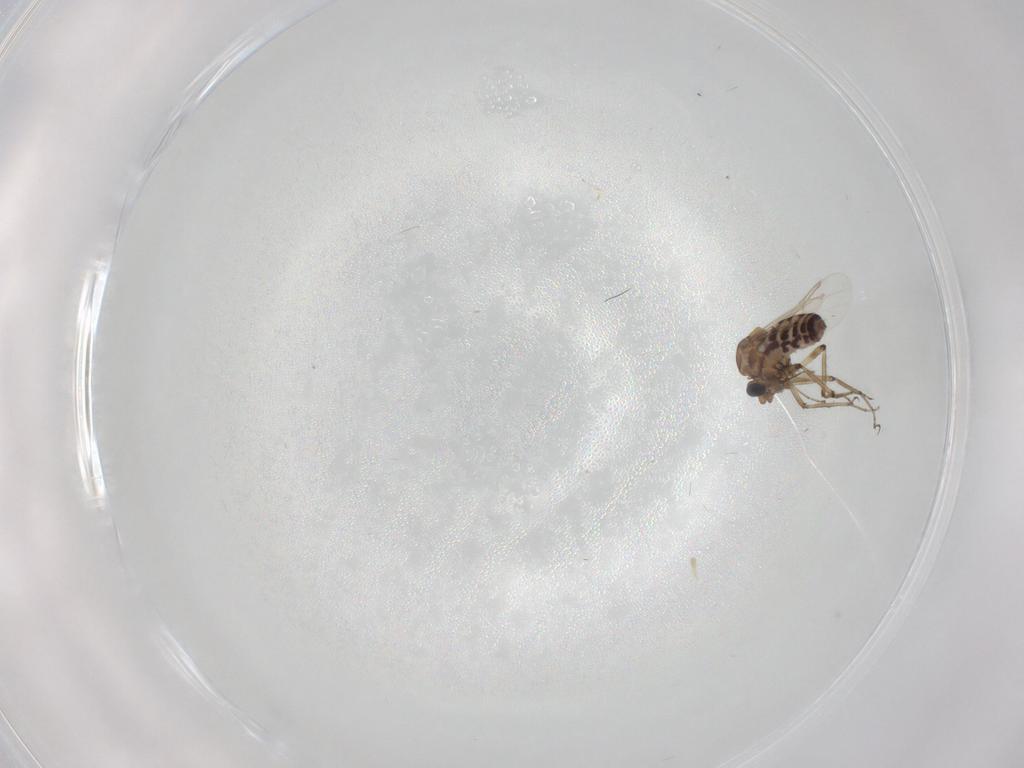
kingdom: Animalia
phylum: Arthropoda
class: Insecta
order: Diptera
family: Ceratopogonidae
